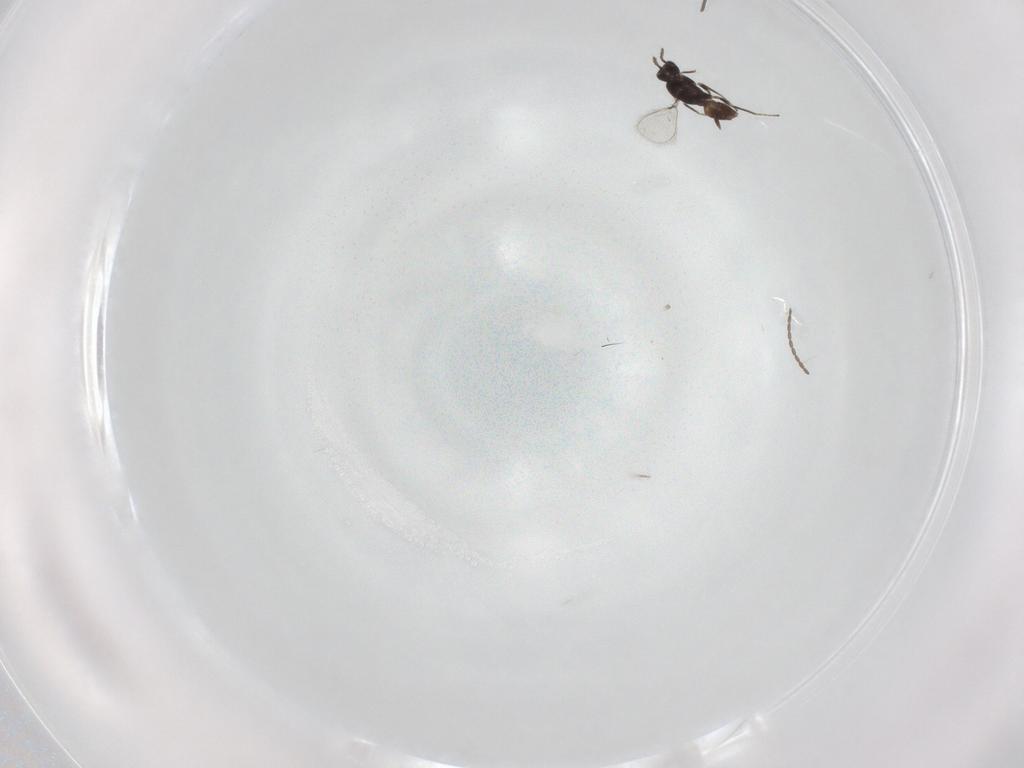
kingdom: Animalia
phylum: Arthropoda
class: Insecta
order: Hymenoptera
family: Mymaridae
